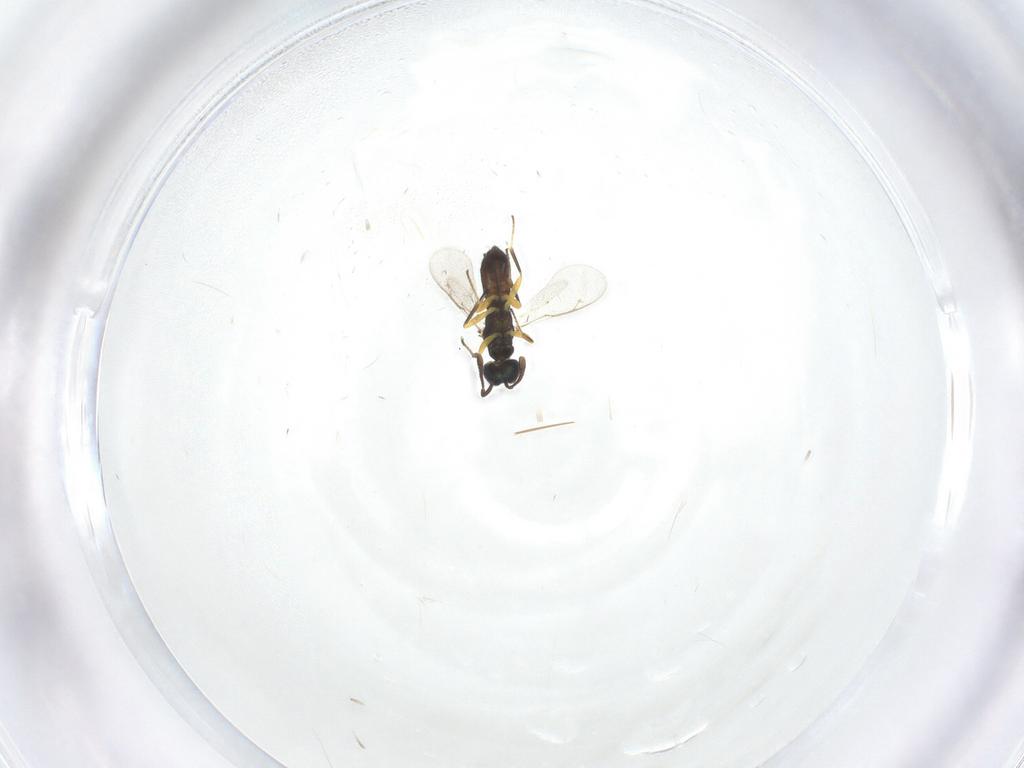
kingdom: Animalia
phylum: Arthropoda
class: Insecta
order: Hymenoptera
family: Eupelmidae
